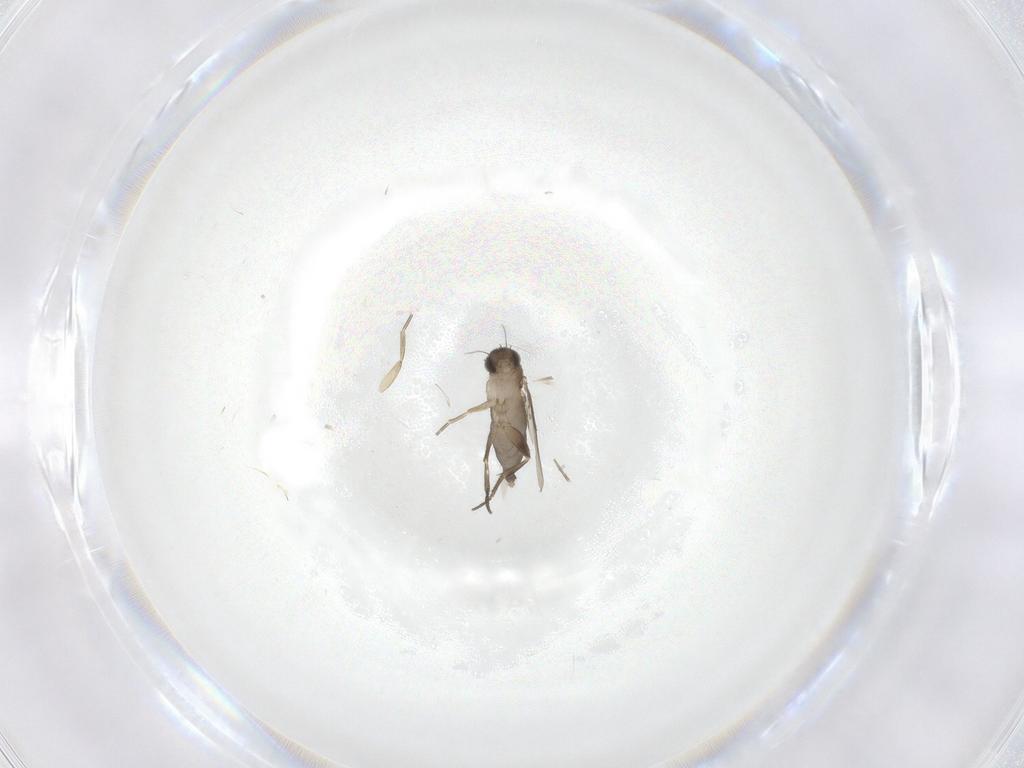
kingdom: Animalia
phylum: Arthropoda
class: Insecta
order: Diptera
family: Phoridae
